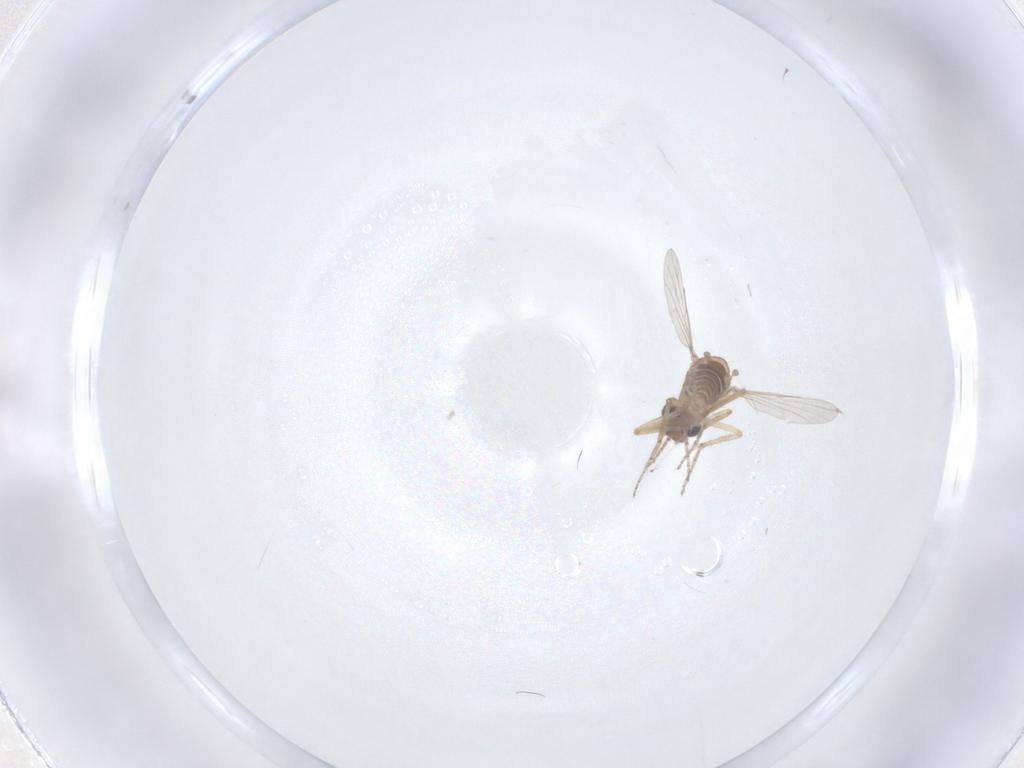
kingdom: Animalia
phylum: Arthropoda
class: Insecta
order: Diptera
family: Ceratopogonidae
